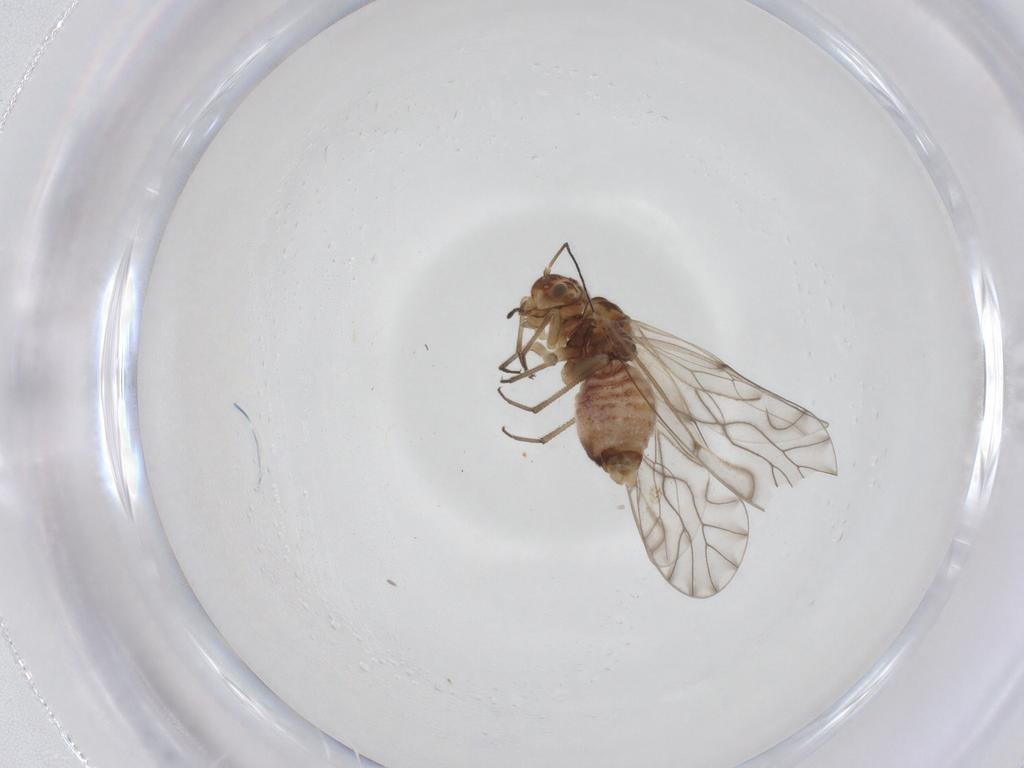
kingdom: Animalia
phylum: Arthropoda
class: Insecta
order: Psocodea
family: Lachesillidae
